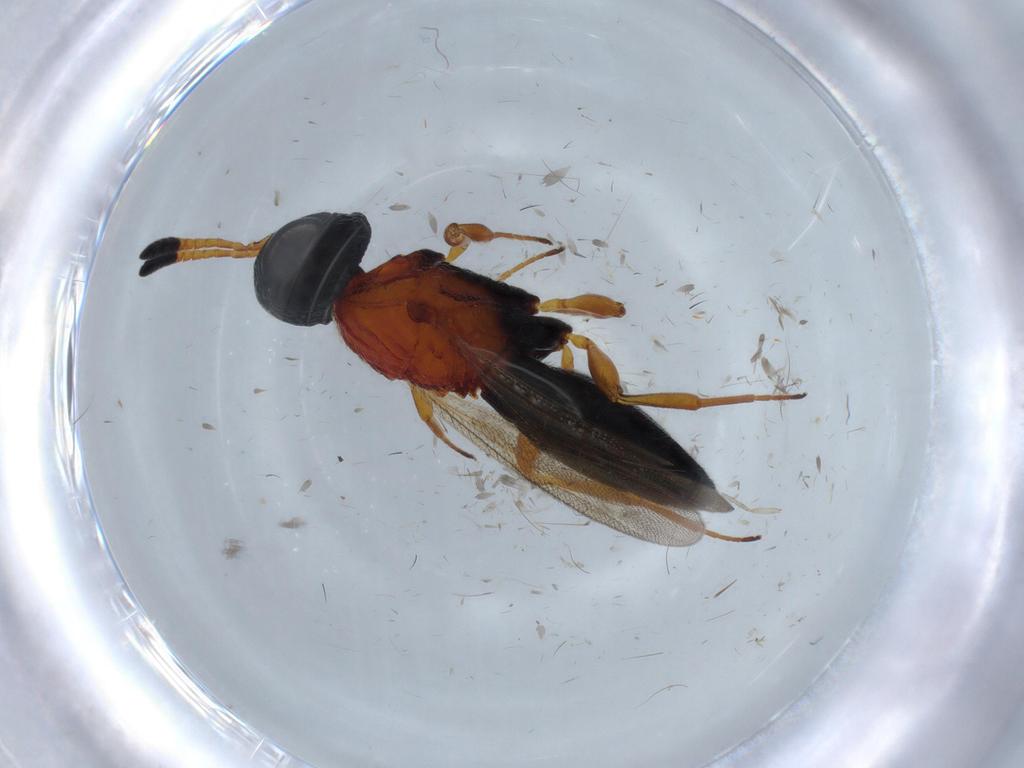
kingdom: Animalia
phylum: Arthropoda
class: Insecta
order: Hymenoptera
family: Scelionidae
